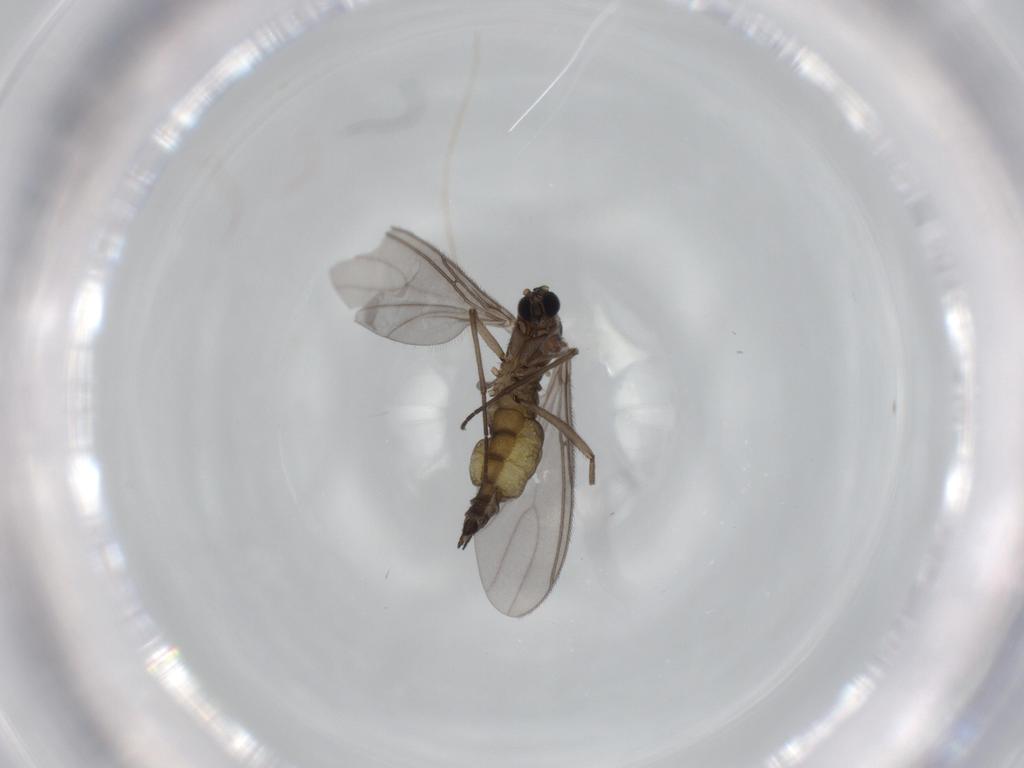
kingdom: Animalia
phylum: Arthropoda
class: Insecta
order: Diptera
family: Sciaridae
